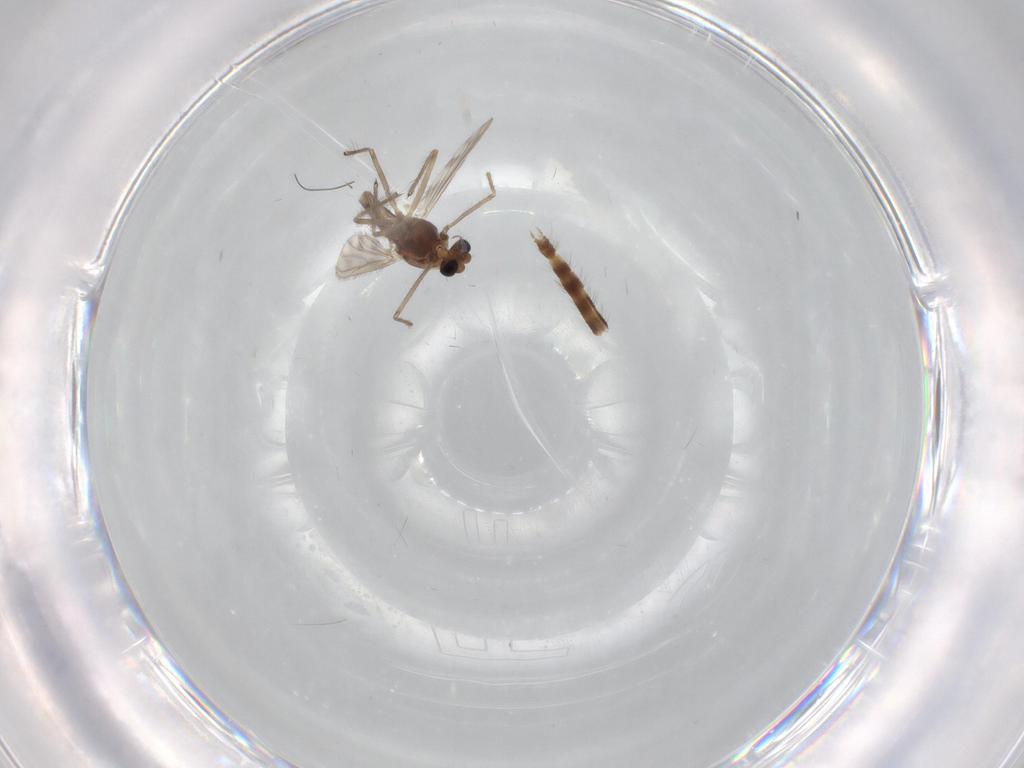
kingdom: Animalia
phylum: Arthropoda
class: Insecta
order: Diptera
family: Chironomidae
